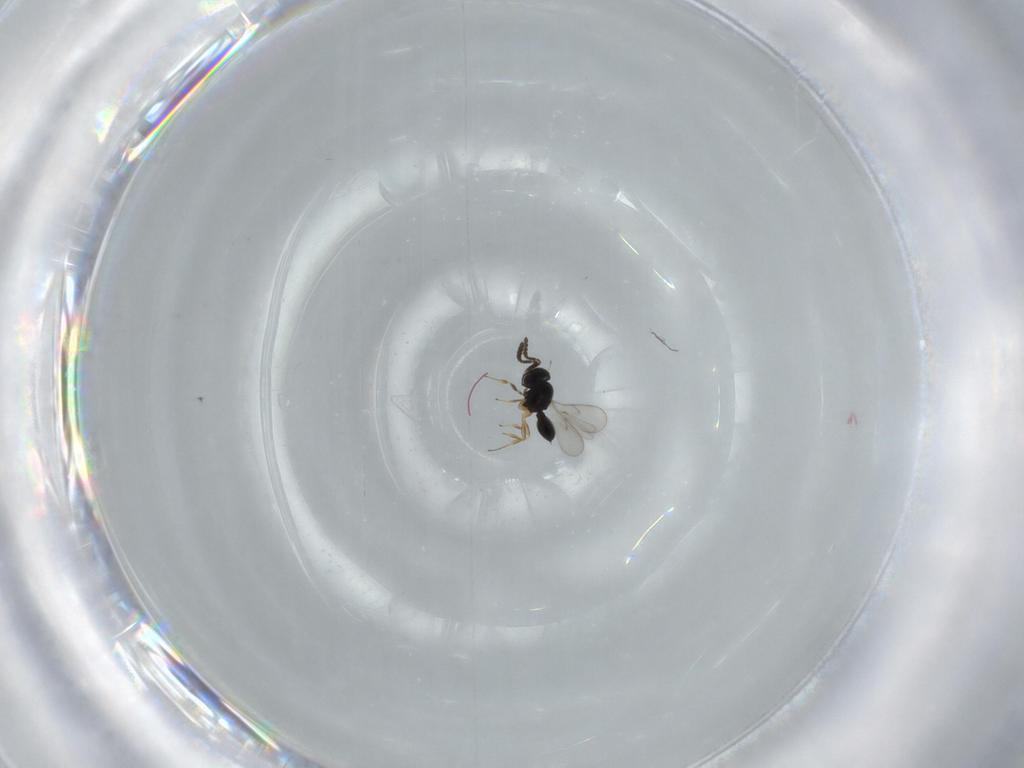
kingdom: Animalia
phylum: Arthropoda
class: Insecta
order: Hymenoptera
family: Scelionidae
